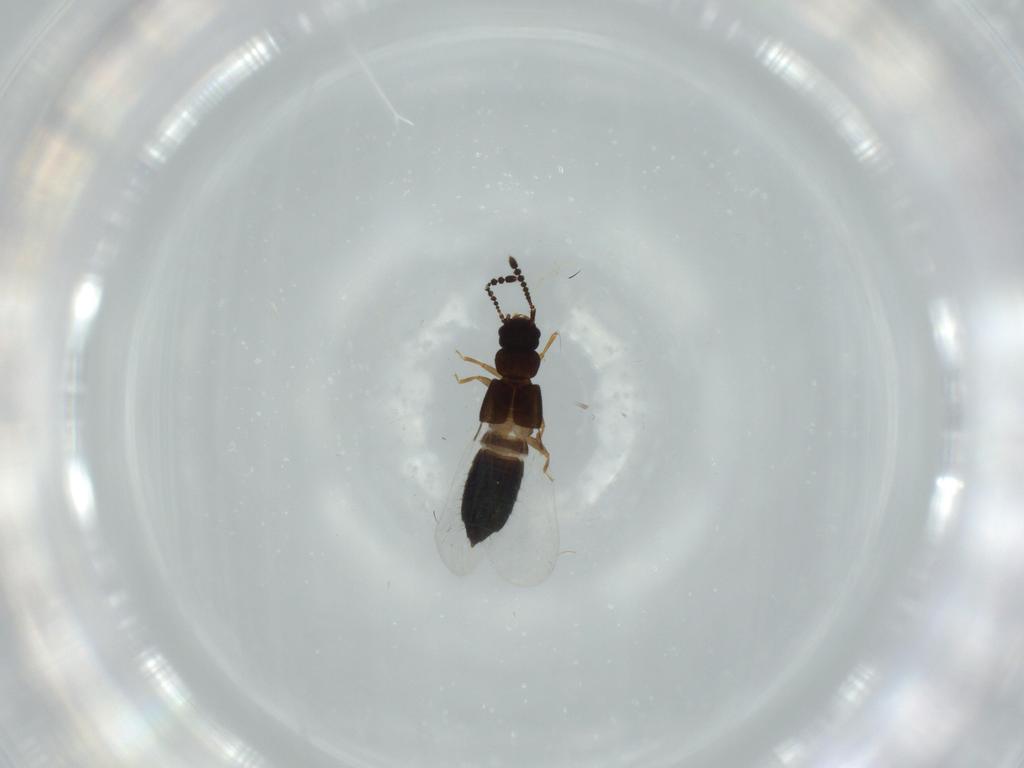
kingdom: Animalia
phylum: Arthropoda
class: Insecta
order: Coleoptera
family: Staphylinidae
